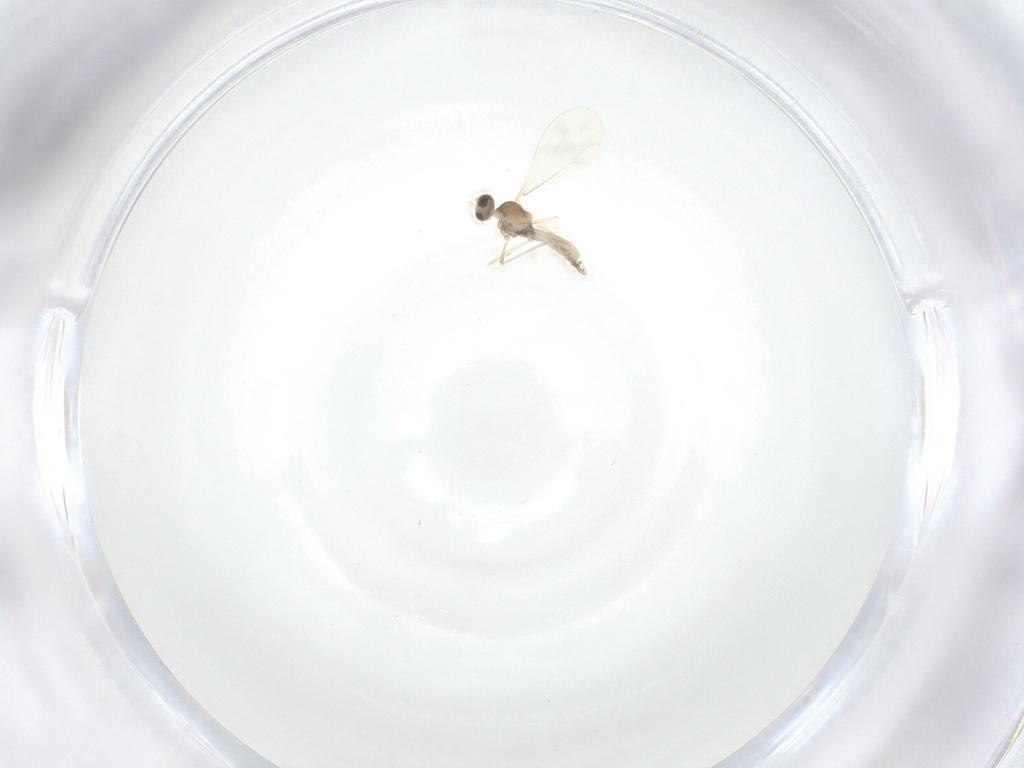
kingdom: Animalia
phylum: Arthropoda
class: Insecta
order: Diptera
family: Cecidomyiidae
